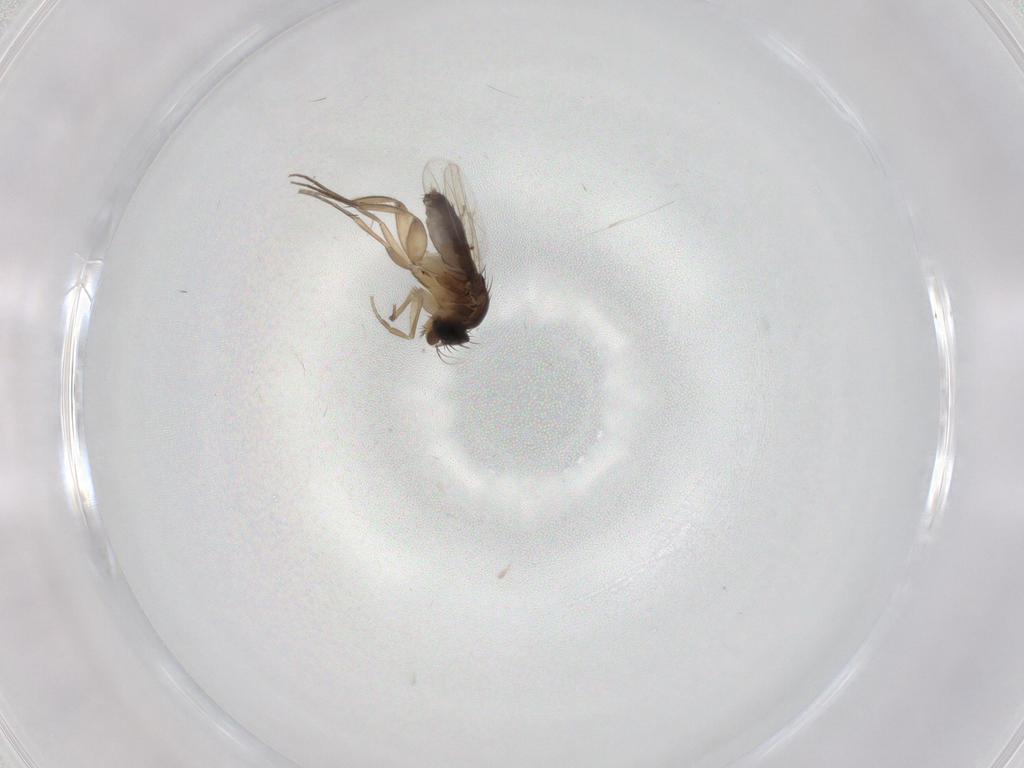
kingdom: Animalia
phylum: Arthropoda
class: Insecta
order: Diptera
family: Phoridae
